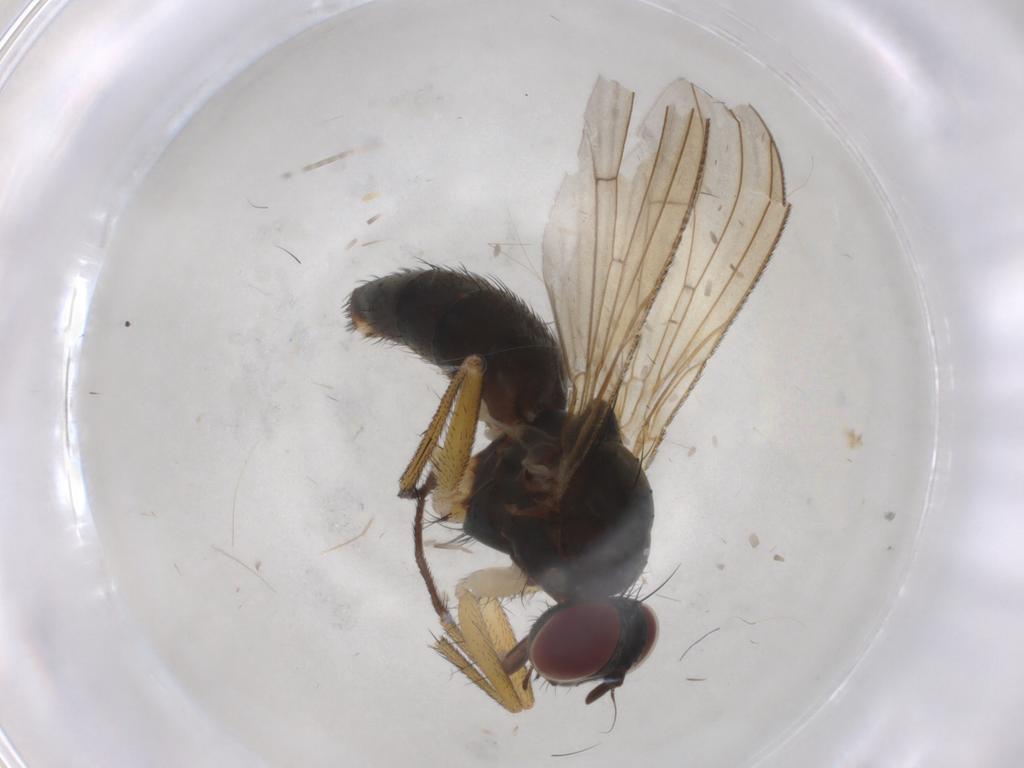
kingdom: Animalia
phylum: Arthropoda
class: Insecta
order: Diptera
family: Muscidae
